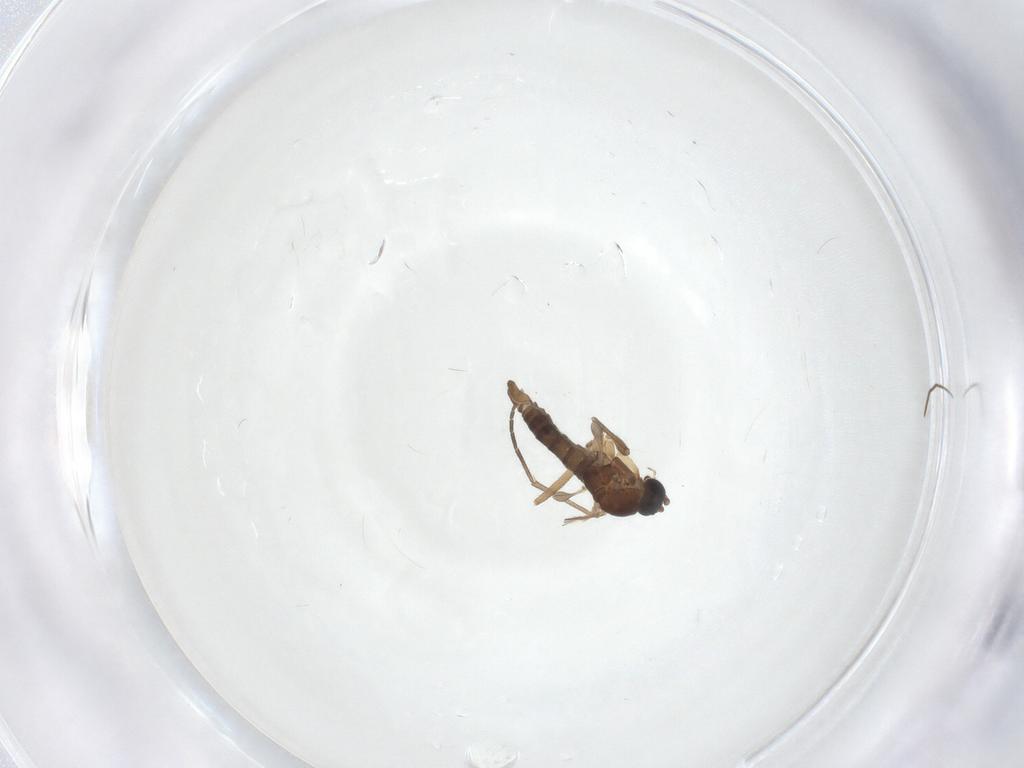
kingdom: Animalia
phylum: Arthropoda
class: Insecta
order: Diptera
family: Sciaridae
